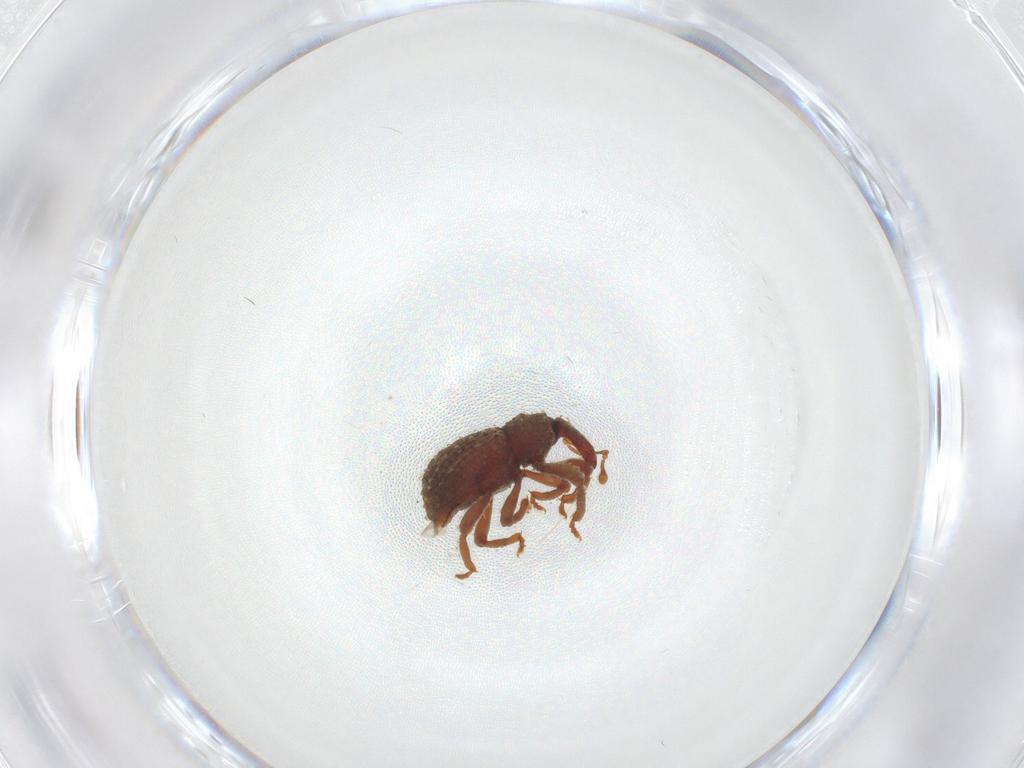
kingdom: Animalia
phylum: Arthropoda
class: Insecta
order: Coleoptera
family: Curculionidae
